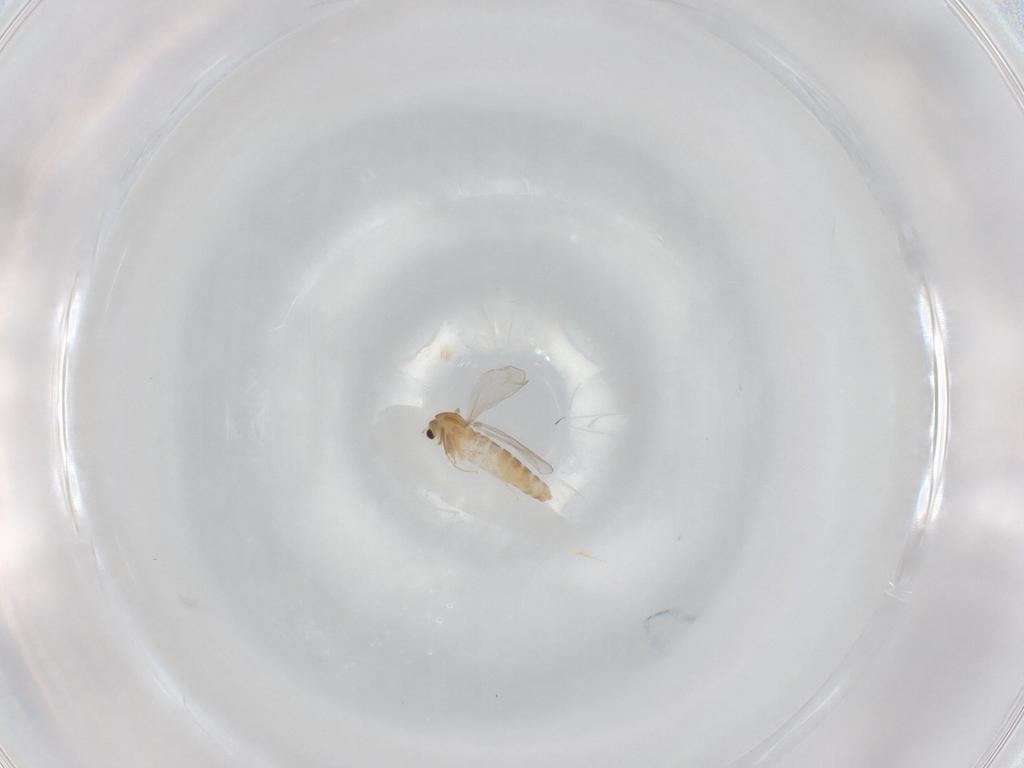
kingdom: Animalia
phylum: Arthropoda
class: Insecta
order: Diptera
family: Chironomidae
